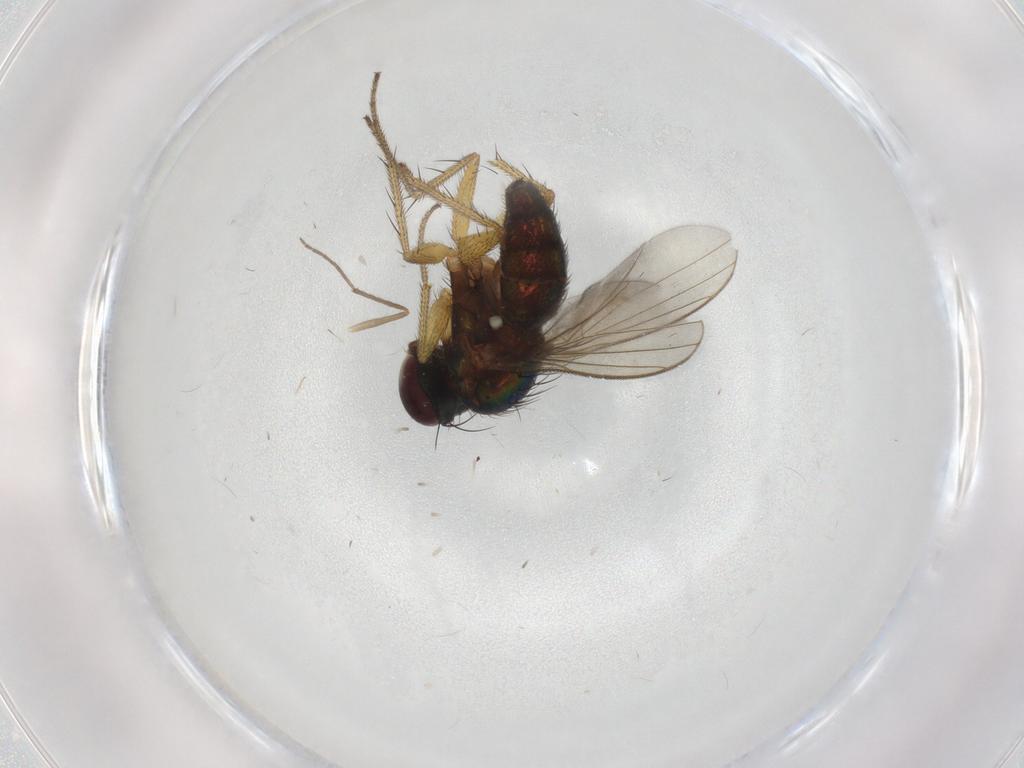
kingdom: Animalia
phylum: Arthropoda
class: Insecta
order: Diptera
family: Chironomidae
